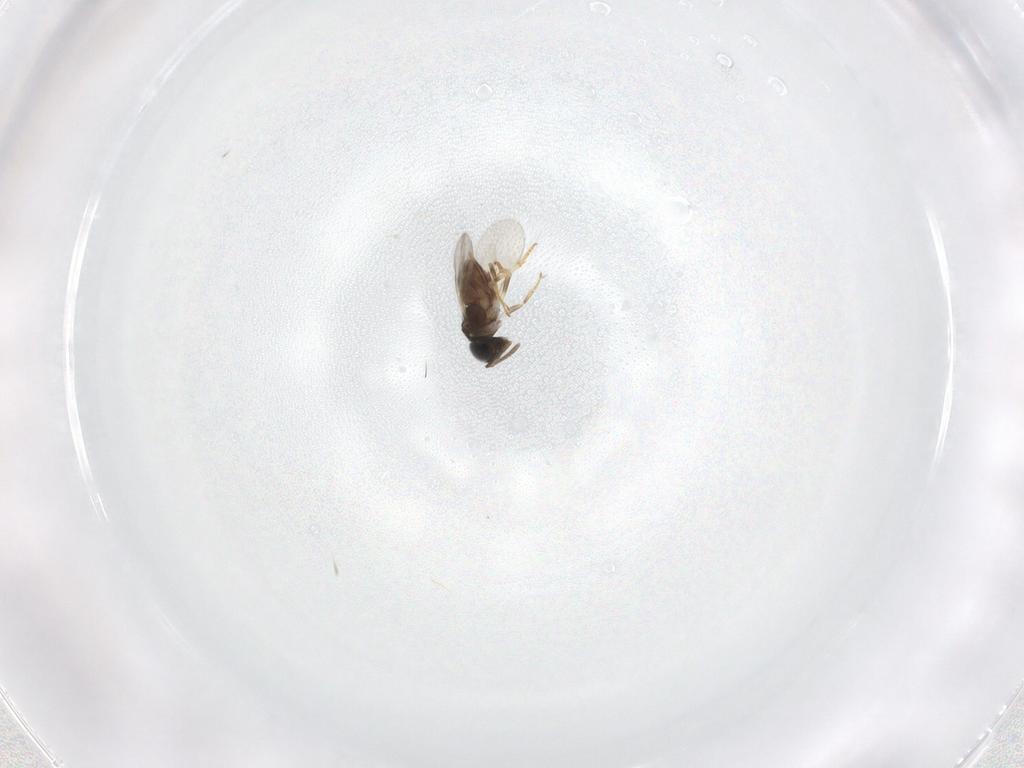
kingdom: Animalia
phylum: Arthropoda
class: Insecta
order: Hymenoptera
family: Encyrtidae
